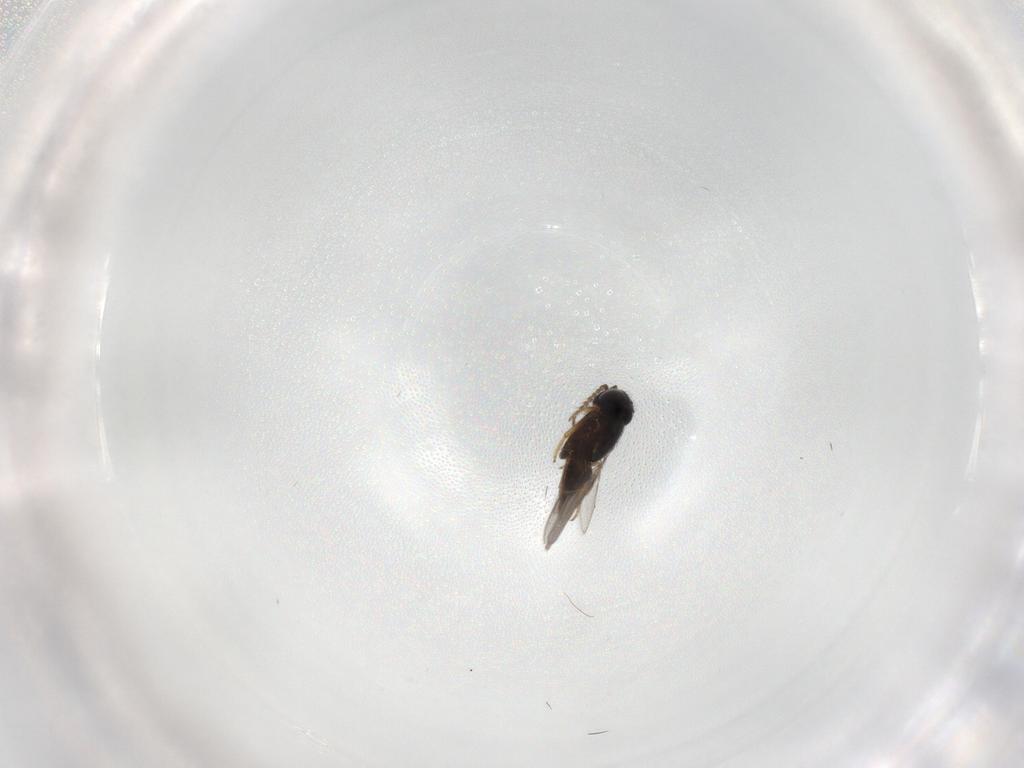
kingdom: Animalia
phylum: Arthropoda
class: Insecta
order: Hymenoptera
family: Encyrtidae
